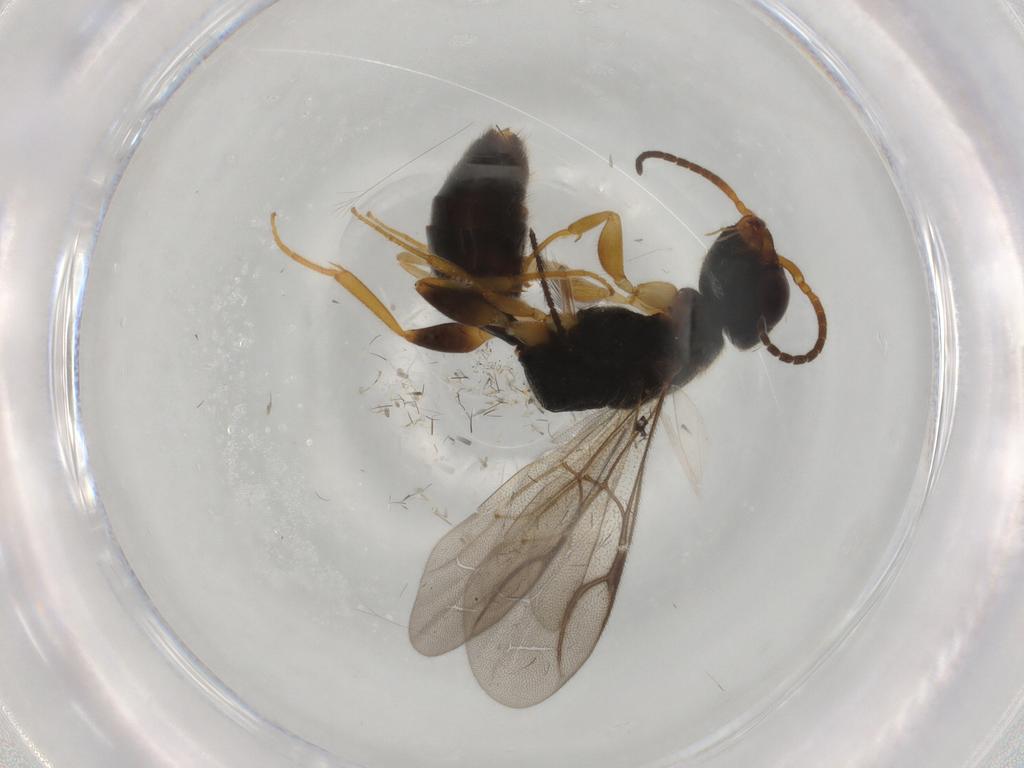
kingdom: Animalia
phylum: Arthropoda
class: Insecta
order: Hymenoptera
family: Bethylidae
